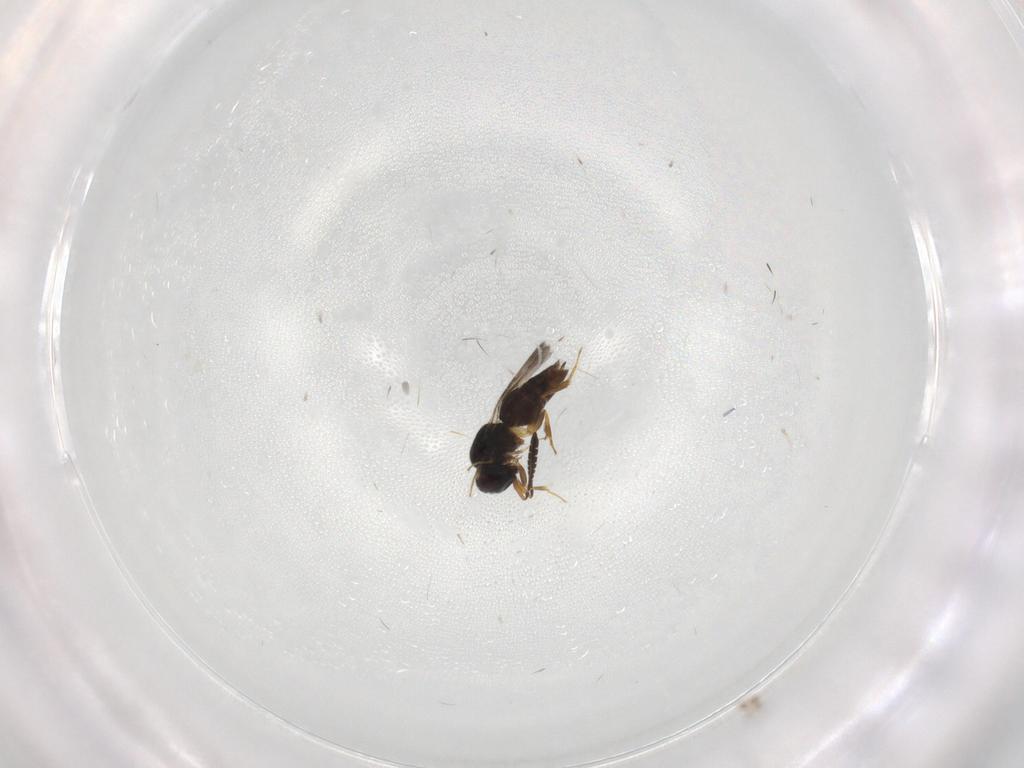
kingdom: Animalia
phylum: Arthropoda
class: Insecta
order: Hymenoptera
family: Ceraphronidae
